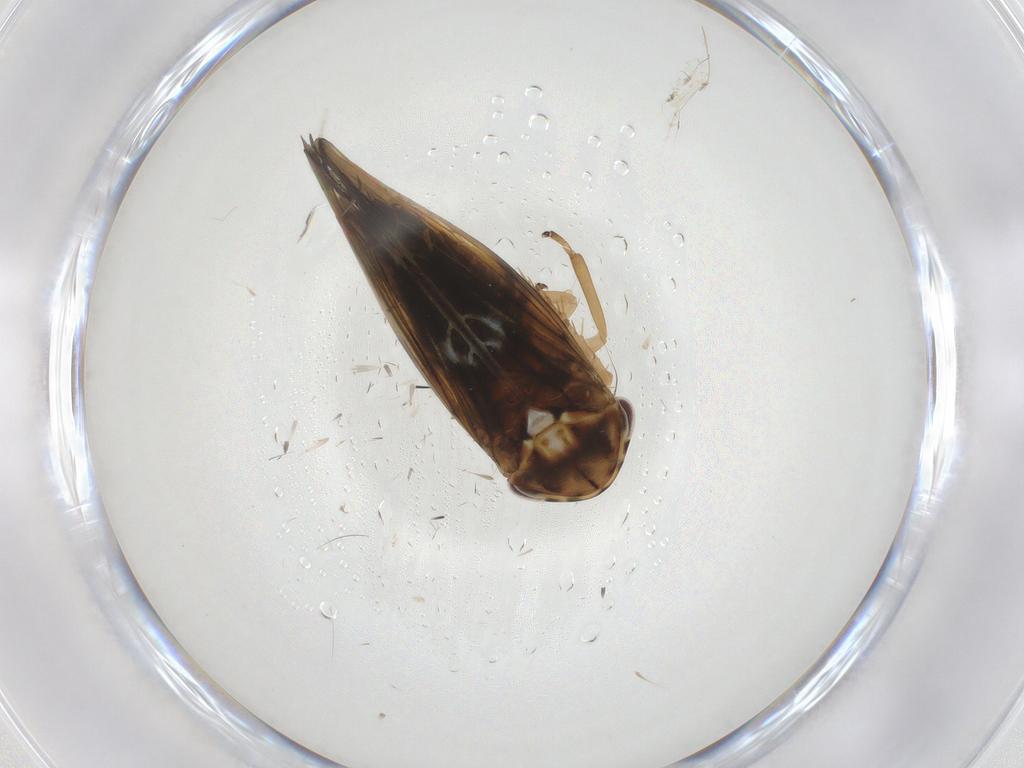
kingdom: Animalia
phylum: Arthropoda
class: Insecta
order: Hemiptera
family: Cicadellidae
